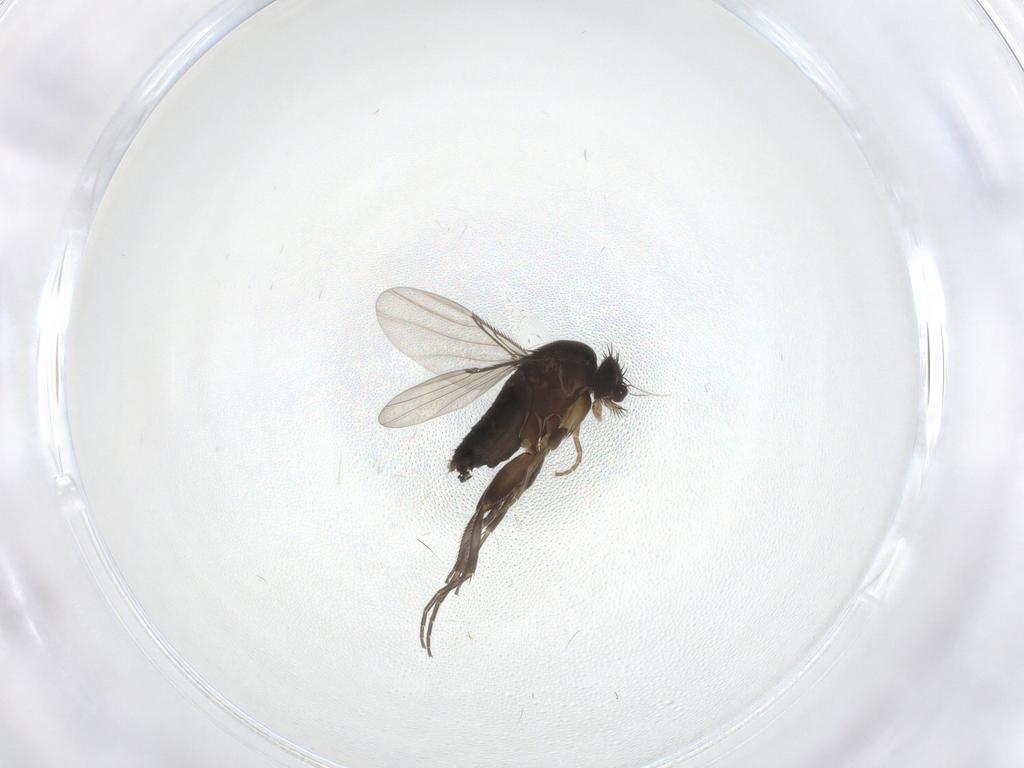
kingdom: Animalia
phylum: Arthropoda
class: Insecta
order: Diptera
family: Phoridae
